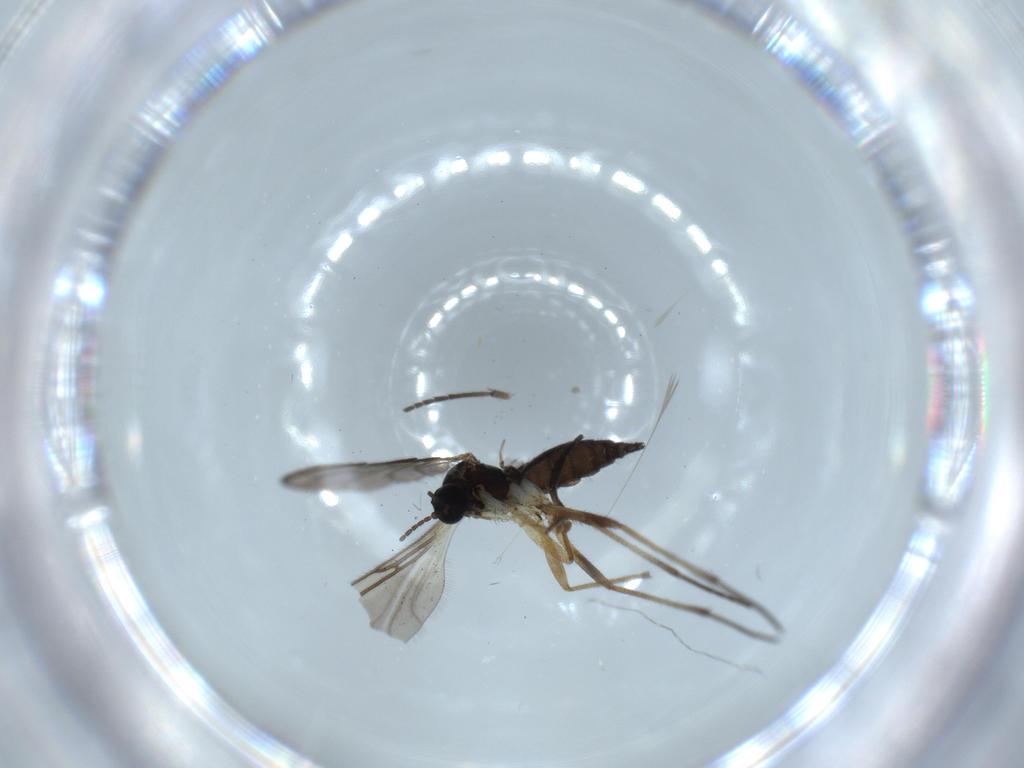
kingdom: Animalia
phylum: Arthropoda
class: Insecta
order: Diptera
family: Sciaridae
